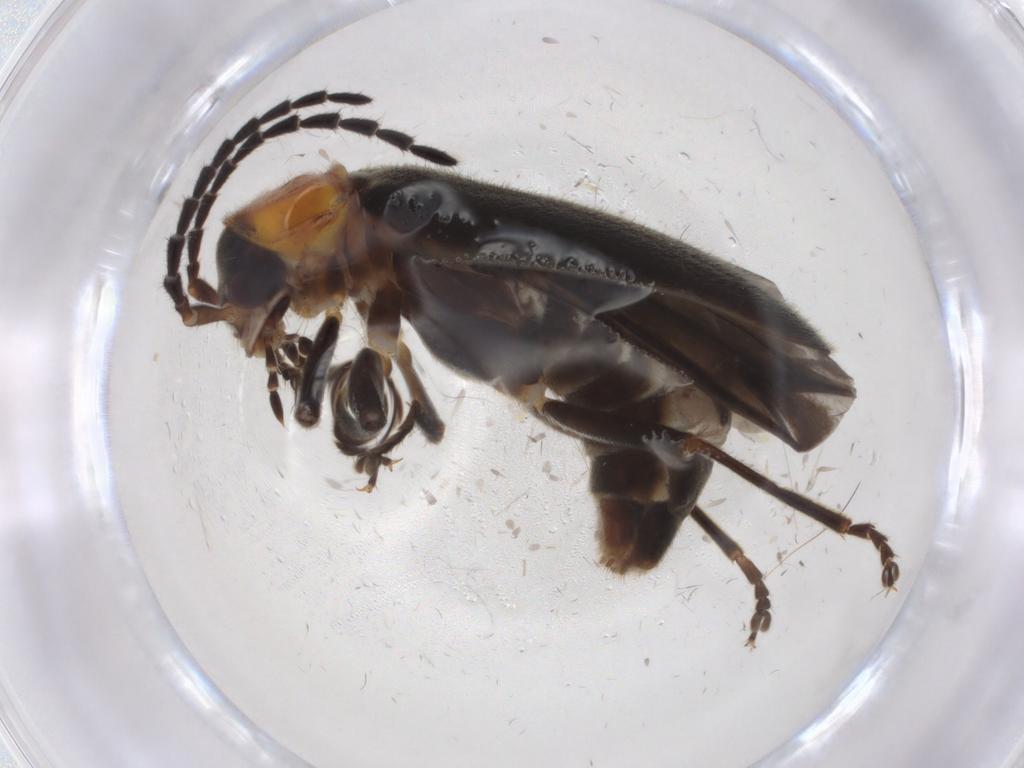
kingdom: Animalia
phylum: Arthropoda
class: Insecta
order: Coleoptera
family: Cantharidae
